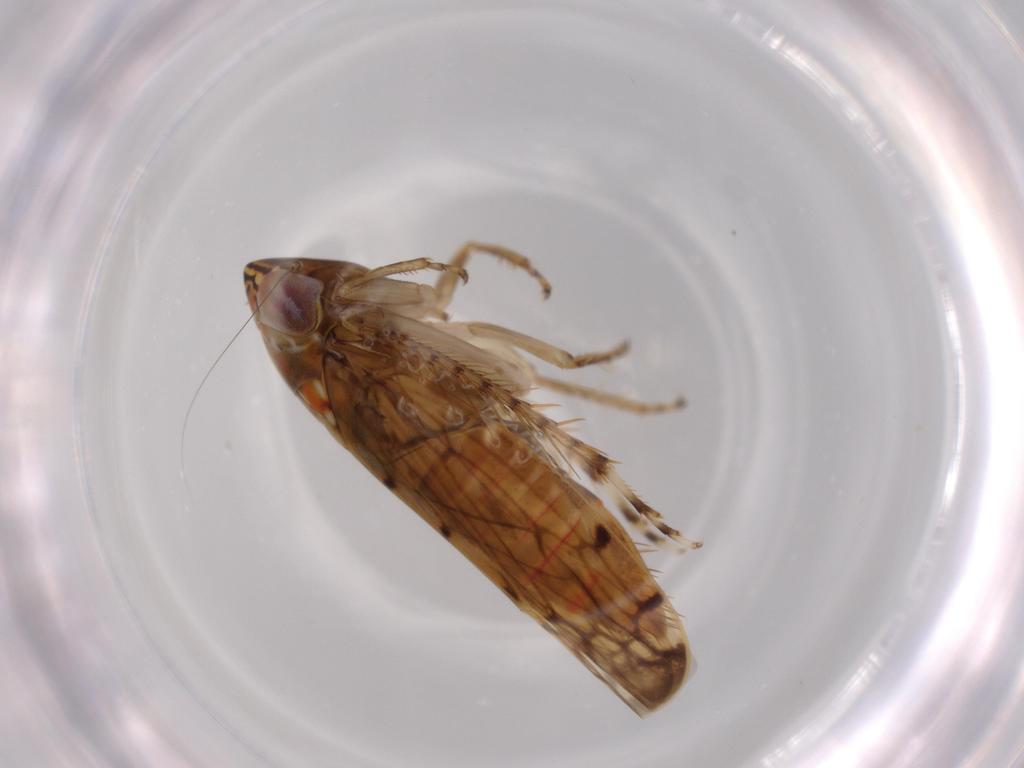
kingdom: Animalia
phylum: Arthropoda
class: Insecta
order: Hemiptera
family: Cicadellidae
